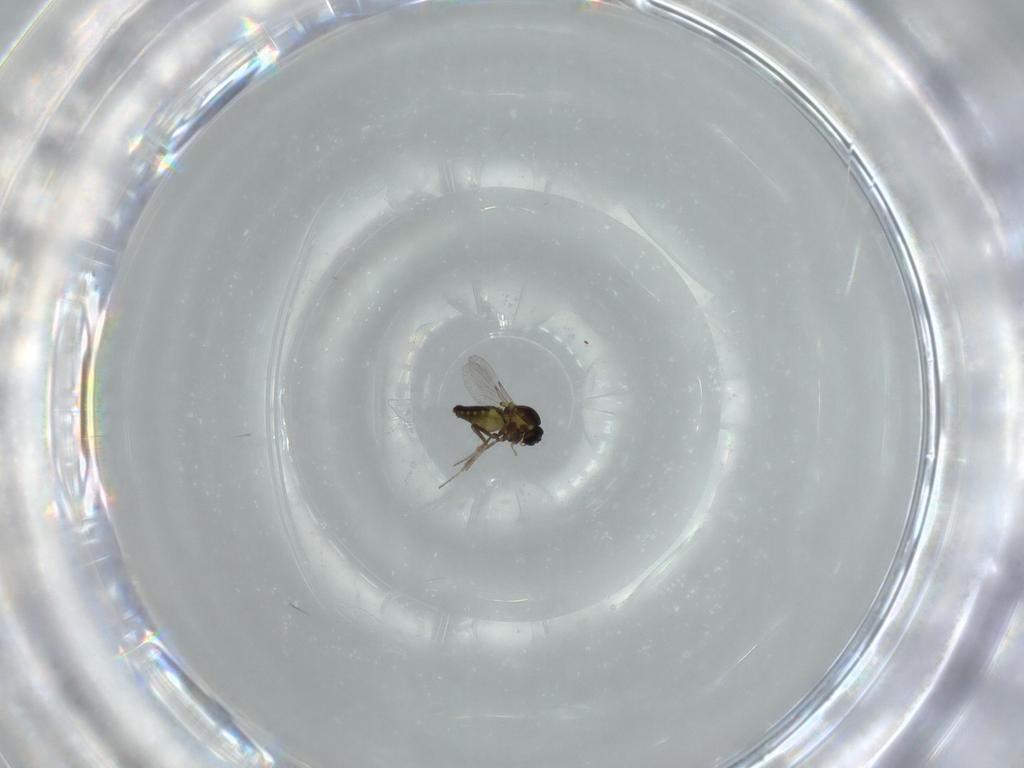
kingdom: Animalia
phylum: Arthropoda
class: Insecta
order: Diptera
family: Ceratopogonidae
